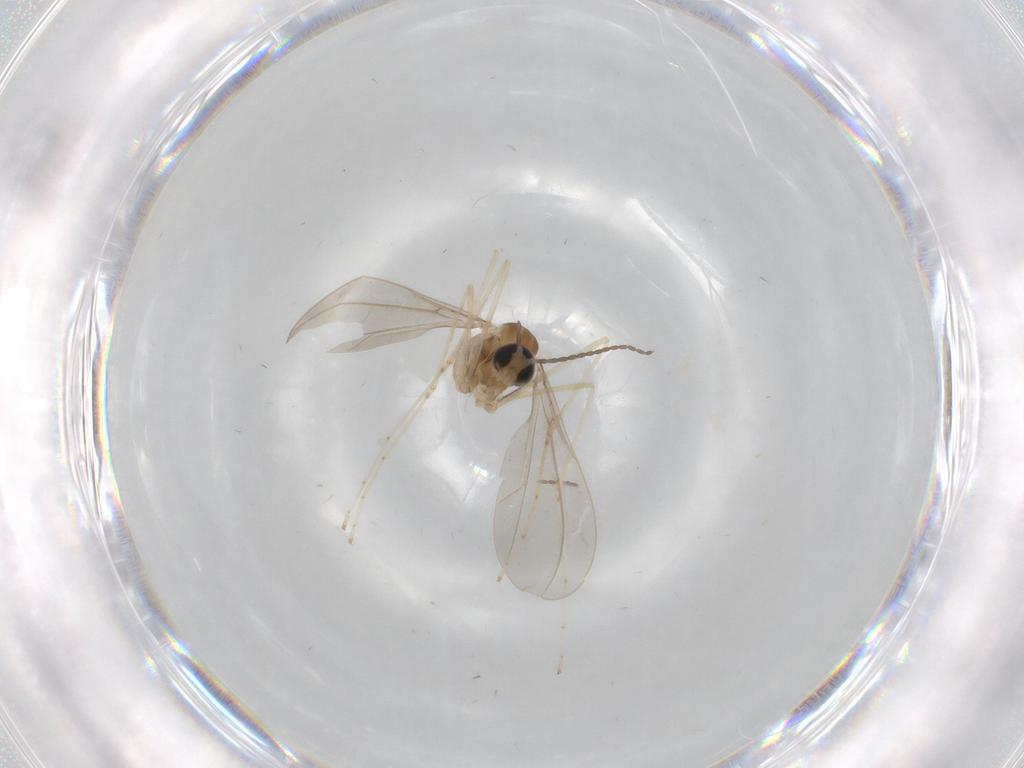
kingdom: Animalia
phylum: Arthropoda
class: Insecta
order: Diptera
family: Cecidomyiidae
